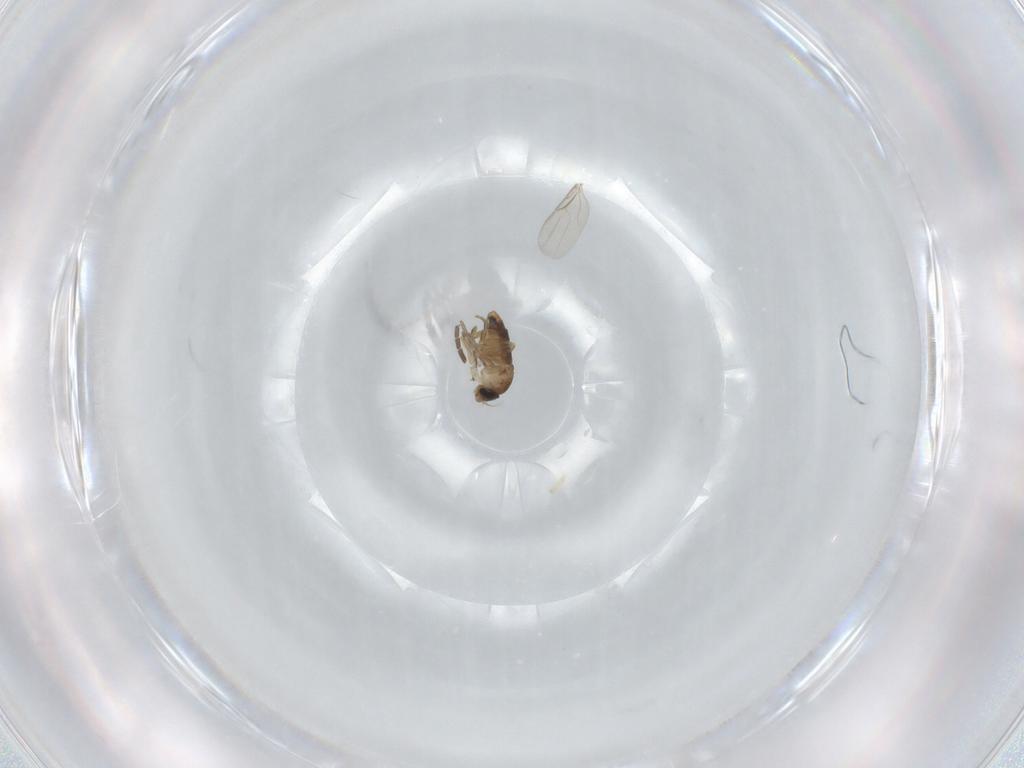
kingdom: Animalia
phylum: Arthropoda
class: Insecta
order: Diptera
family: Phoridae
